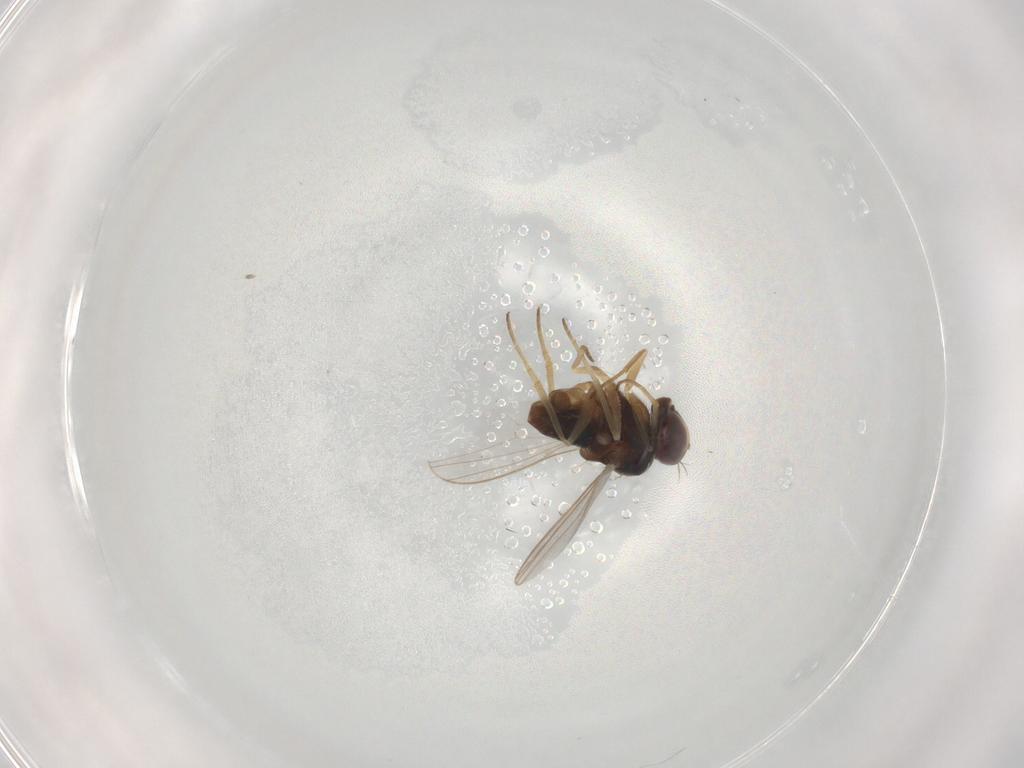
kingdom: Animalia
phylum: Arthropoda
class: Insecta
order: Diptera
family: Dolichopodidae
